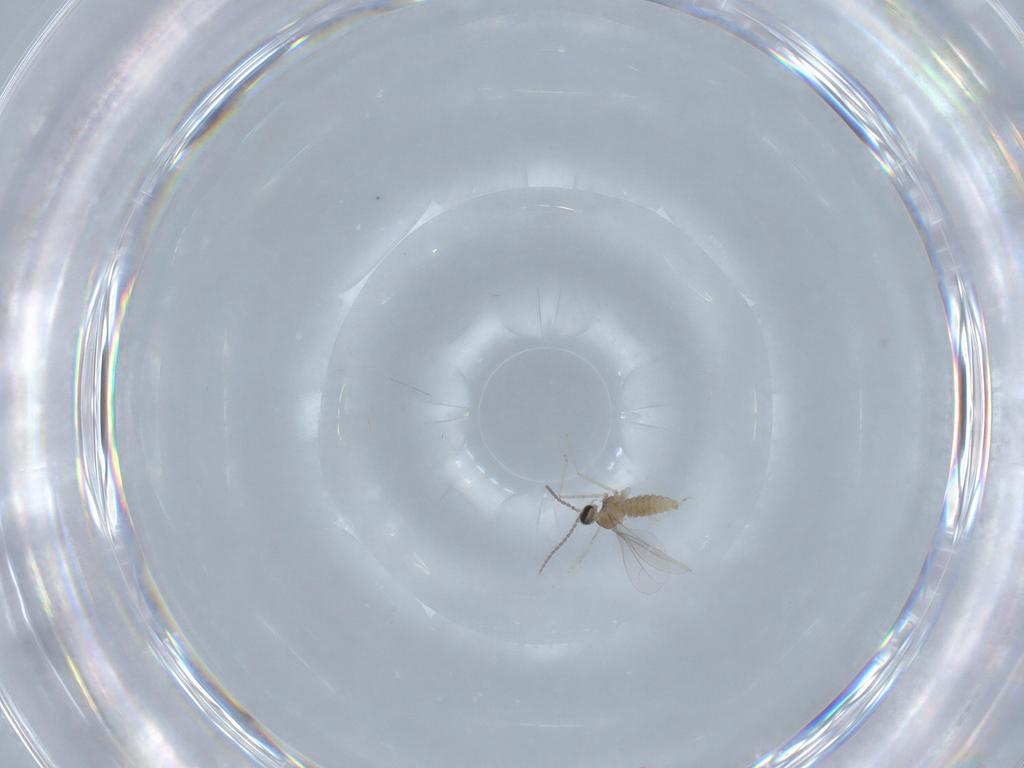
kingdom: Animalia
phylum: Arthropoda
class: Insecta
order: Diptera
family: Cecidomyiidae
